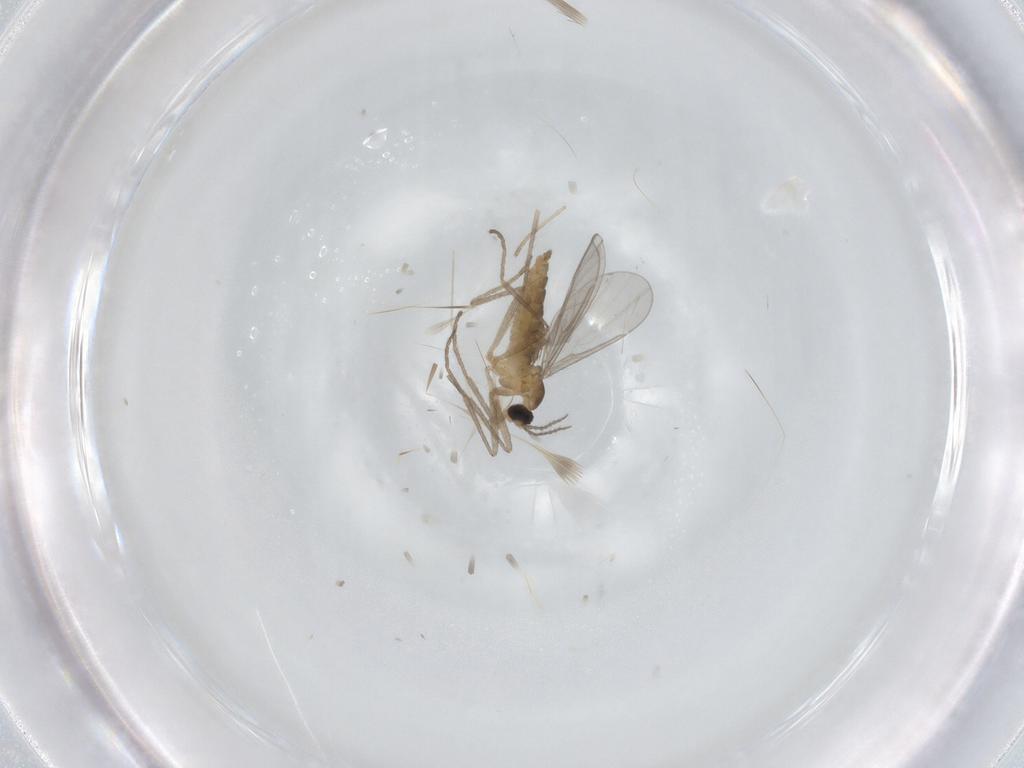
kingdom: Animalia
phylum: Arthropoda
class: Insecta
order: Diptera
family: Cecidomyiidae
